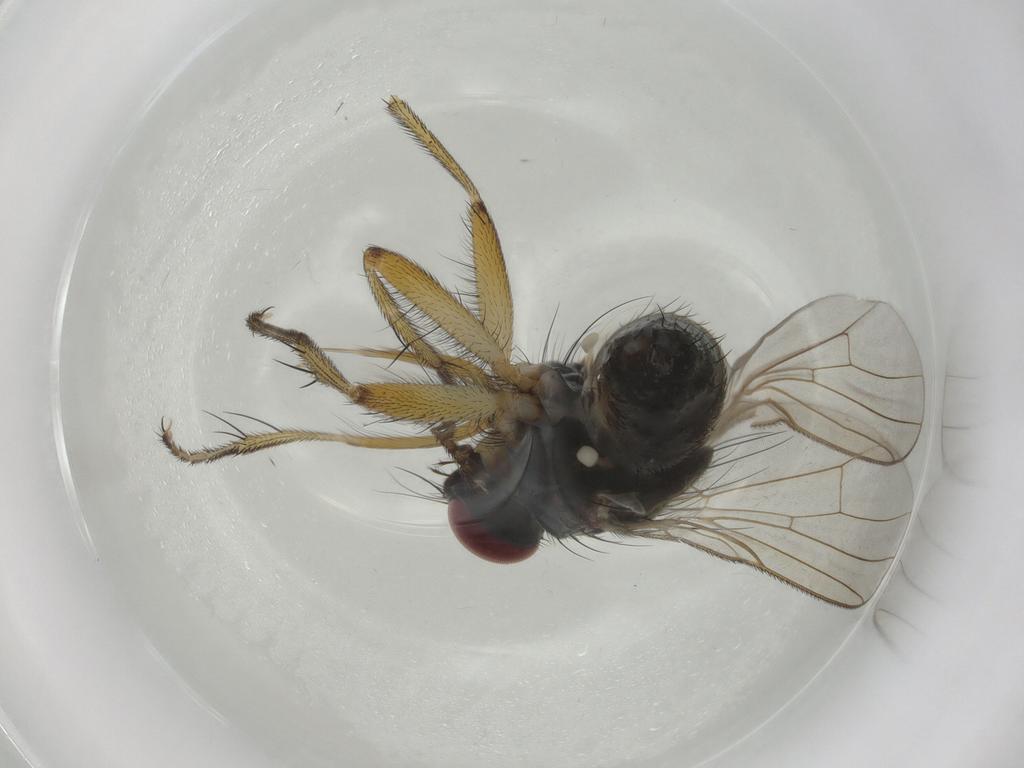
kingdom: Animalia
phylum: Arthropoda
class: Insecta
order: Diptera
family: Muscidae
